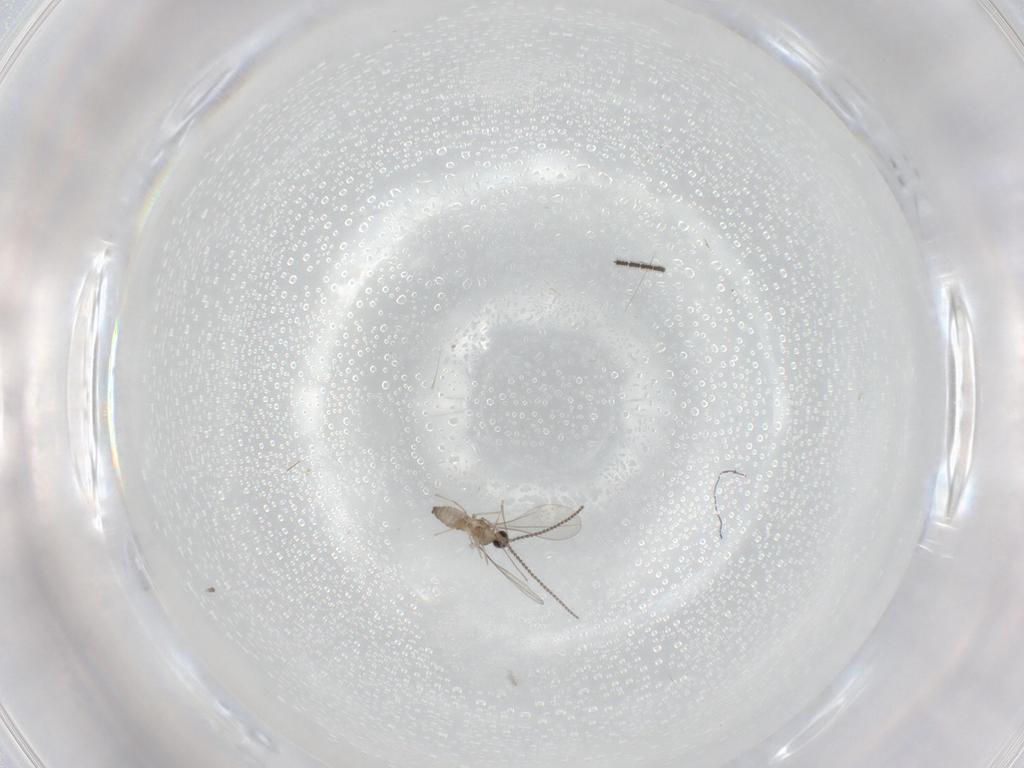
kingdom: Animalia
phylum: Arthropoda
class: Insecta
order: Diptera
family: Sciaridae
